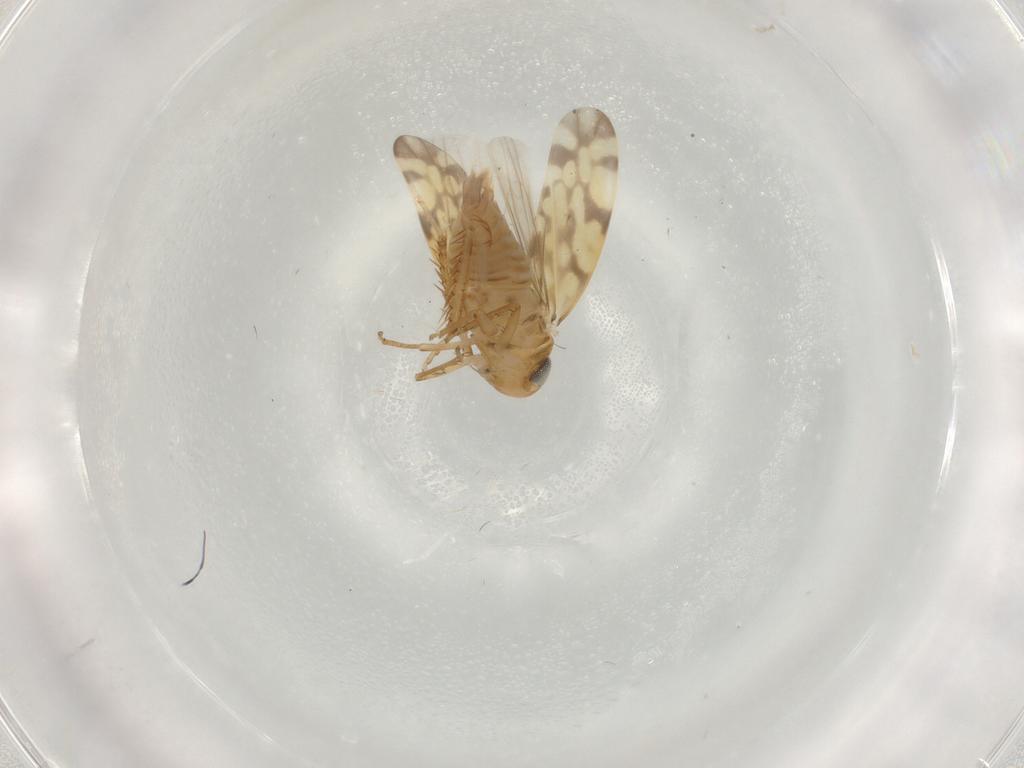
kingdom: Animalia
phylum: Arthropoda
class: Insecta
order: Hemiptera
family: Cicadellidae
